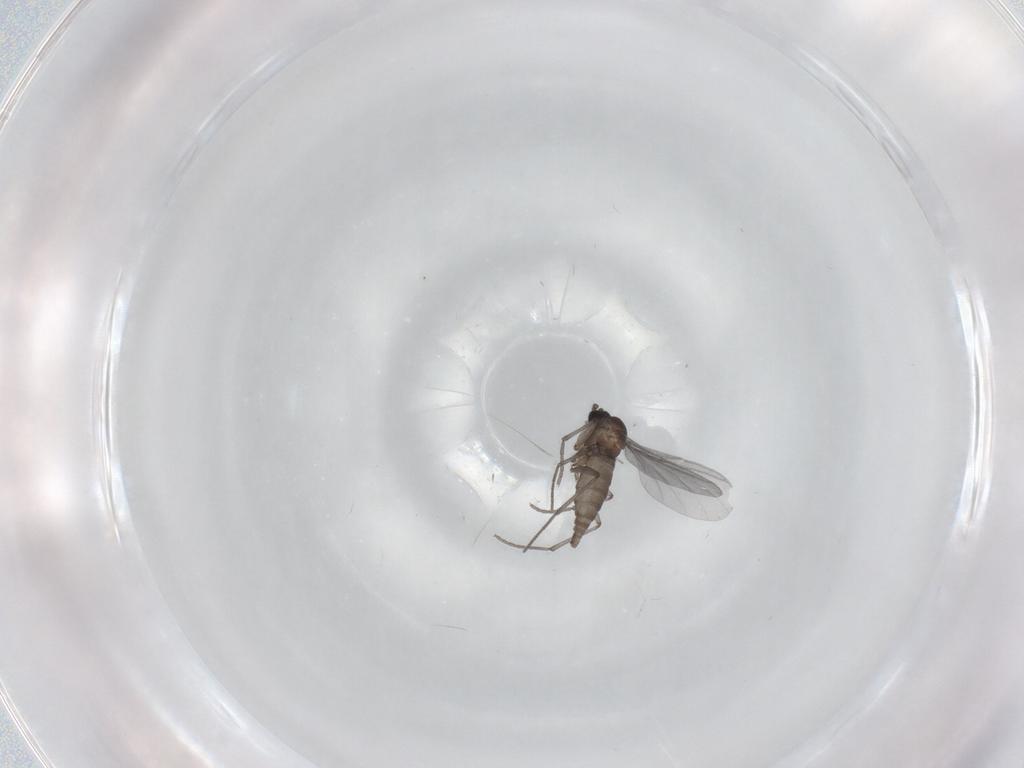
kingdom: Animalia
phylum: Arthropoda
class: Insecta
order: Diptera
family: Sciaridae
